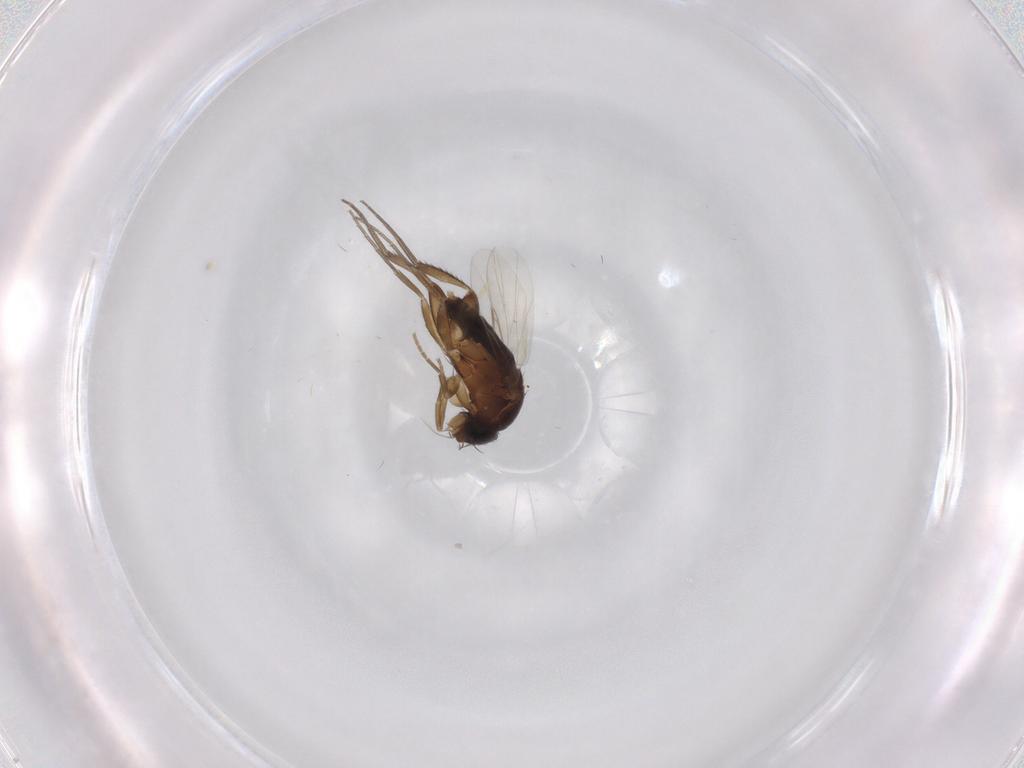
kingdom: Animalia
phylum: Arthropoda
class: Insecta
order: Diptera
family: Phoridae
